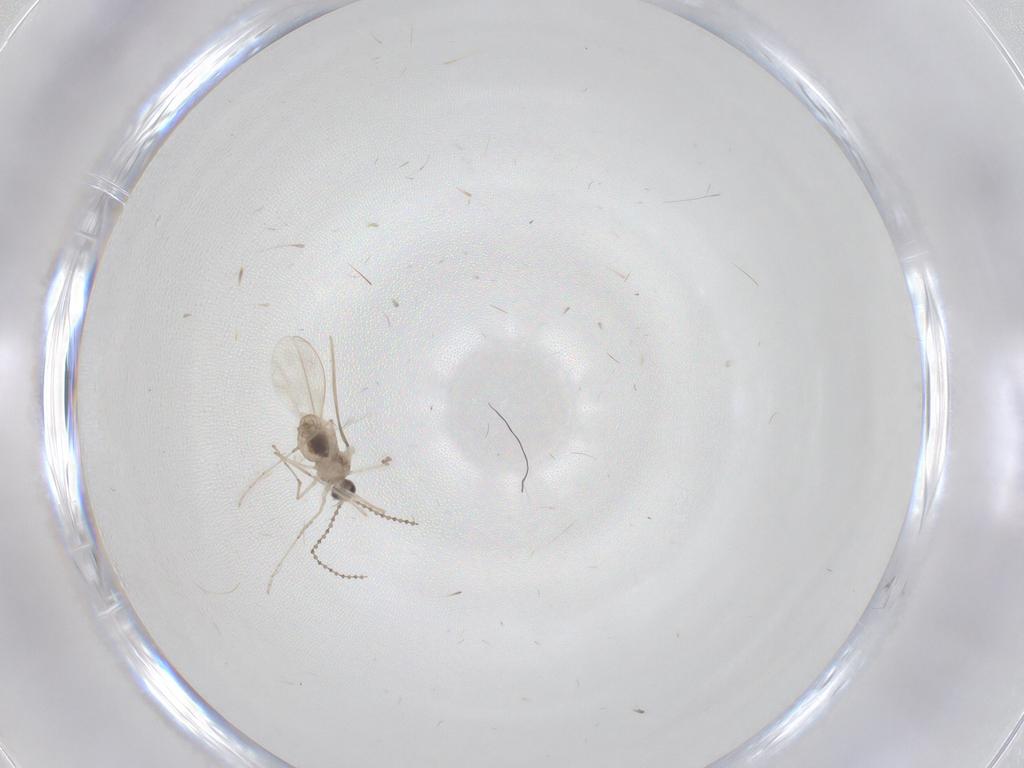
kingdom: Animalia
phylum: Arthropoda
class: Insecta
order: Diptera
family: Cecidomyiidae
